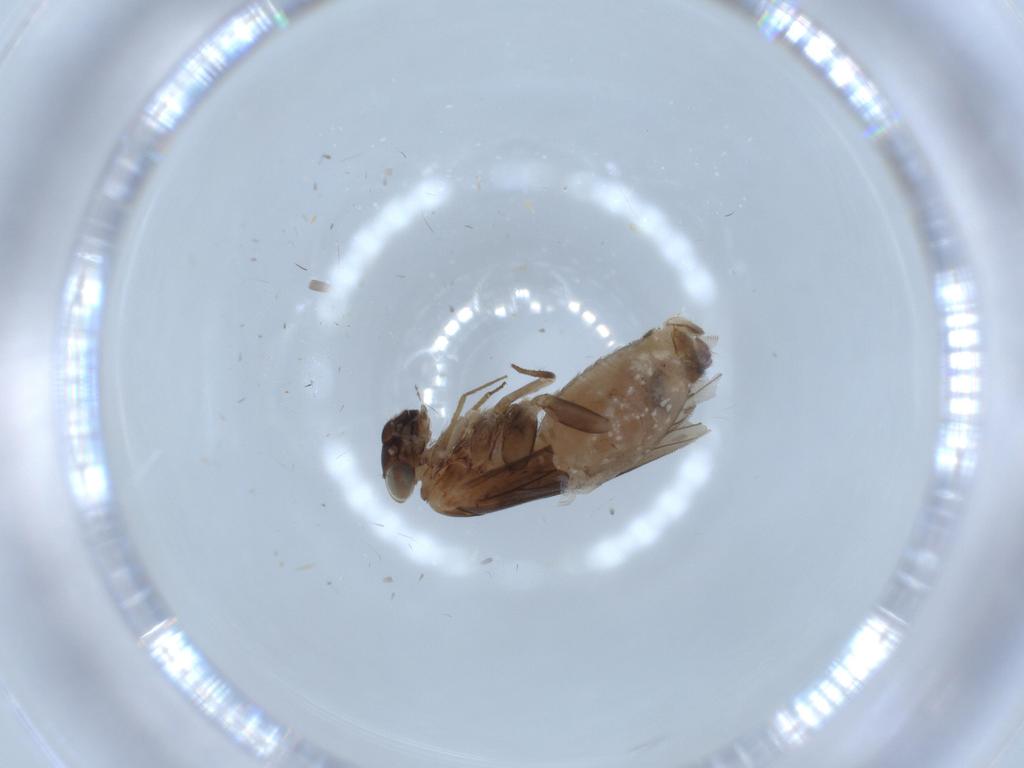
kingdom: Animalia
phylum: Arthropoda
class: Insecta
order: Psocodea
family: Lepidopsocidae
